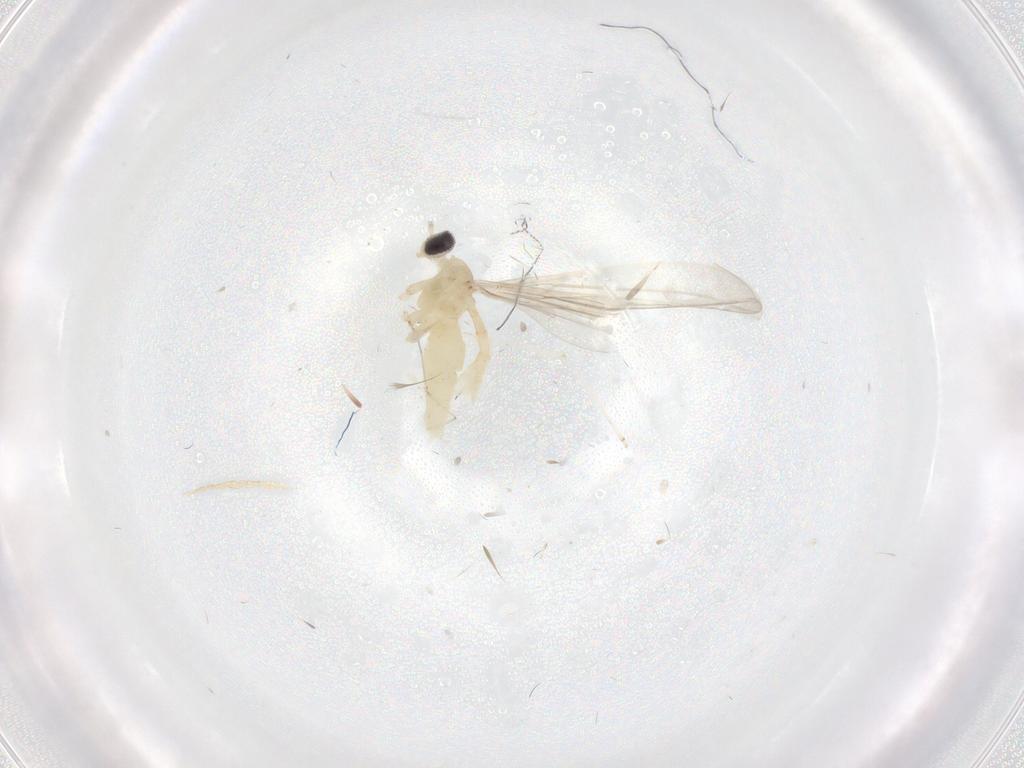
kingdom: Animalia
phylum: Arthropoda
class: Insecta
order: Diptera
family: Cecidomyiidae
